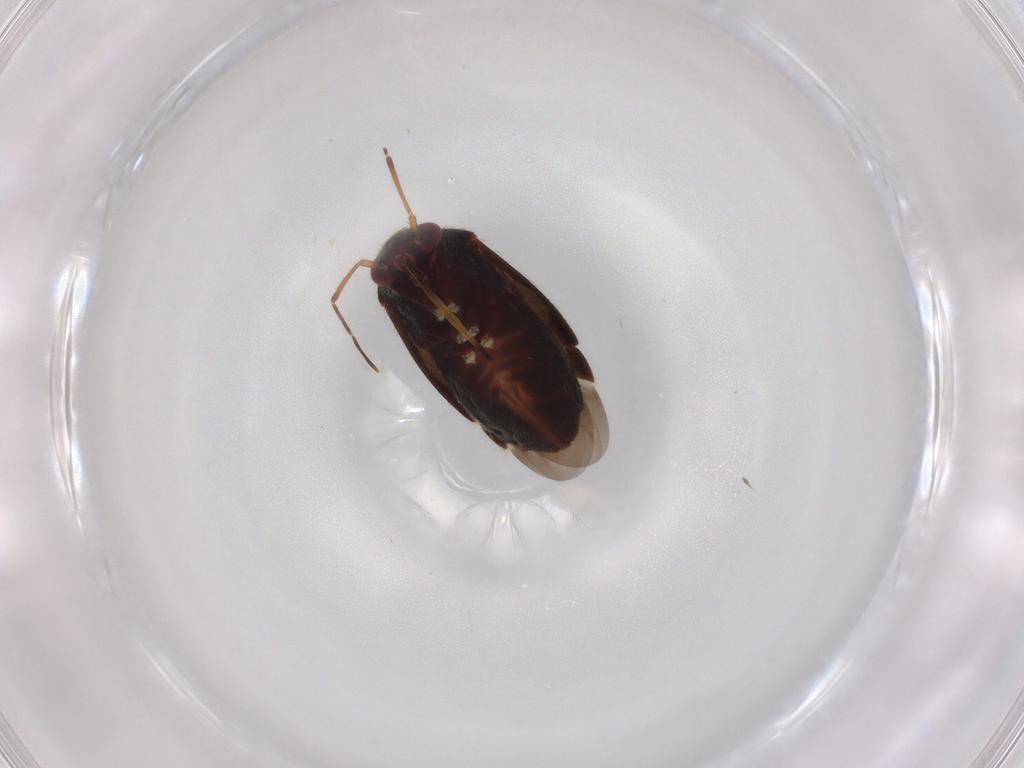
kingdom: Animalia
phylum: Arthropoda
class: Insecta
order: Hemiptera
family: Miridae
